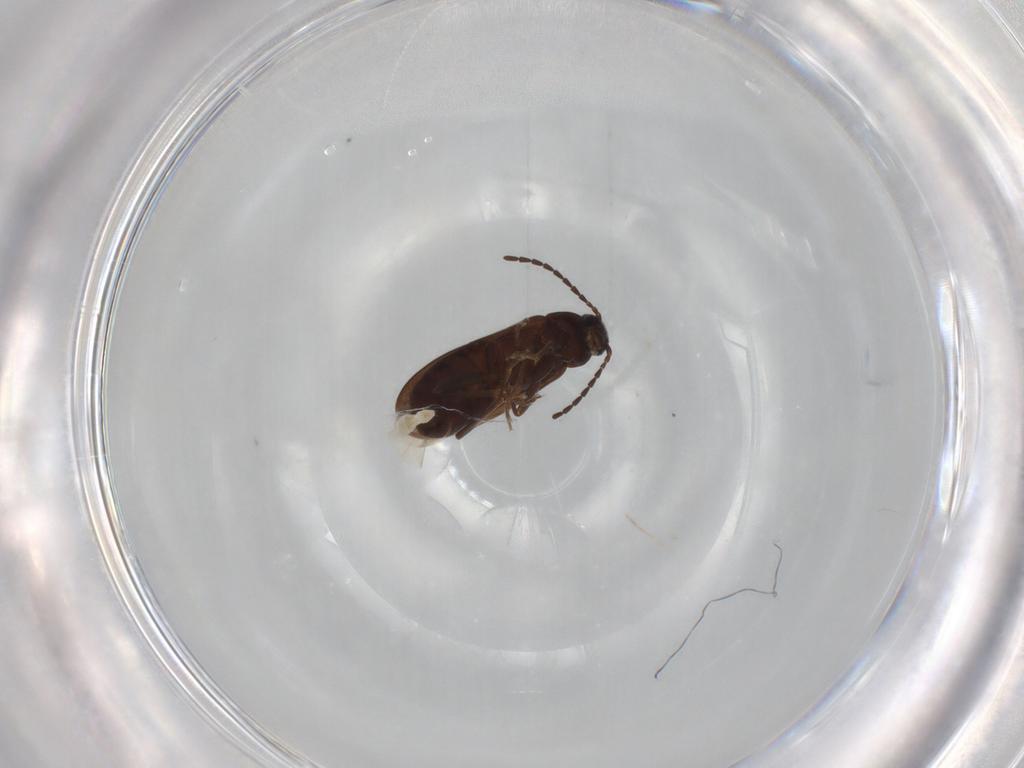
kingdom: Animalia
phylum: Arthropoda
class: Insecta
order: Coleoptera
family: Scraptiidae
